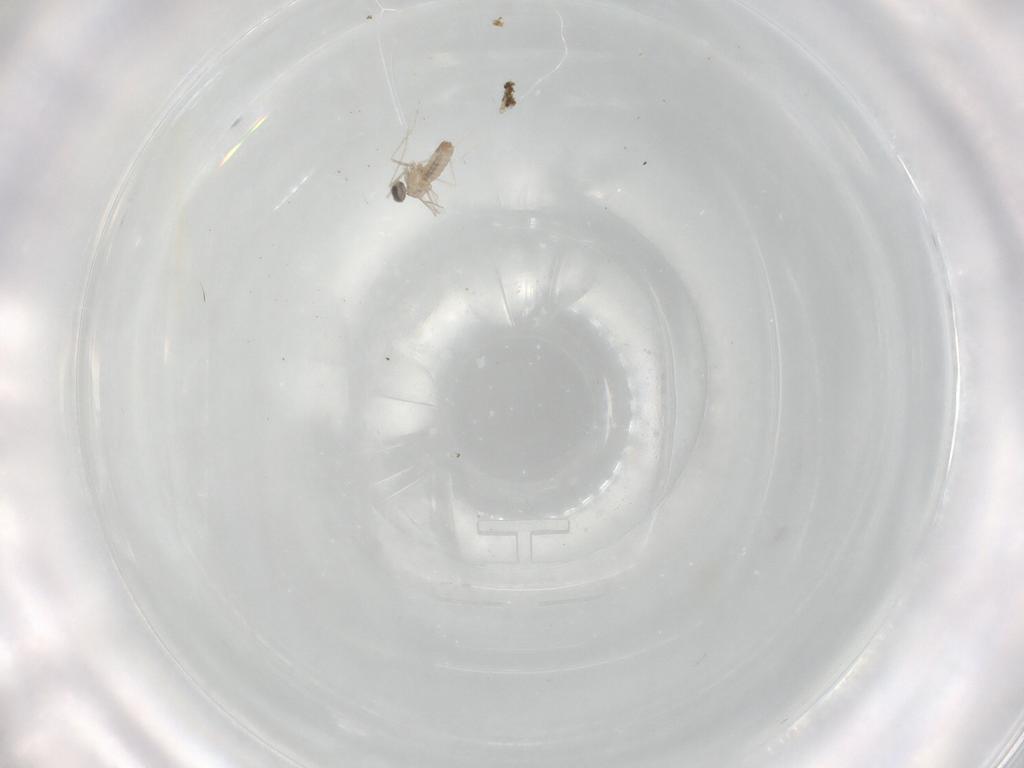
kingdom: Animalia
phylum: Arthropoda
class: Insecta
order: Diptera
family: Cecidomyiidae
